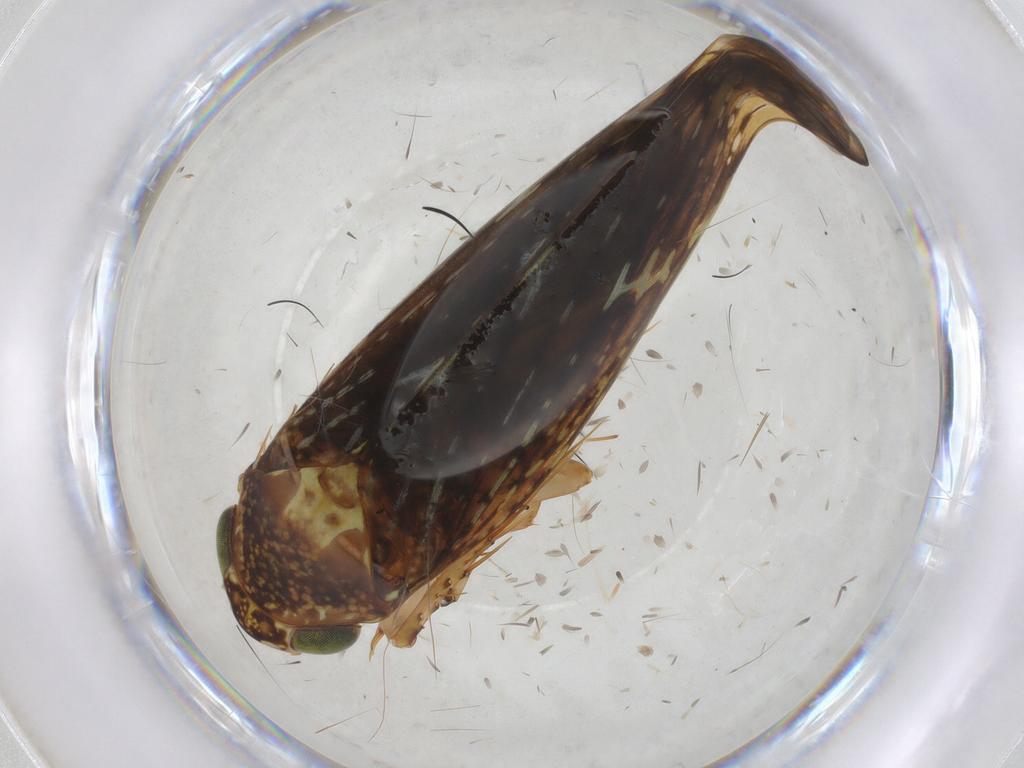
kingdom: Animalia
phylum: Arthropoda
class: Insecta
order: Hemiptera
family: Cicadellidae
